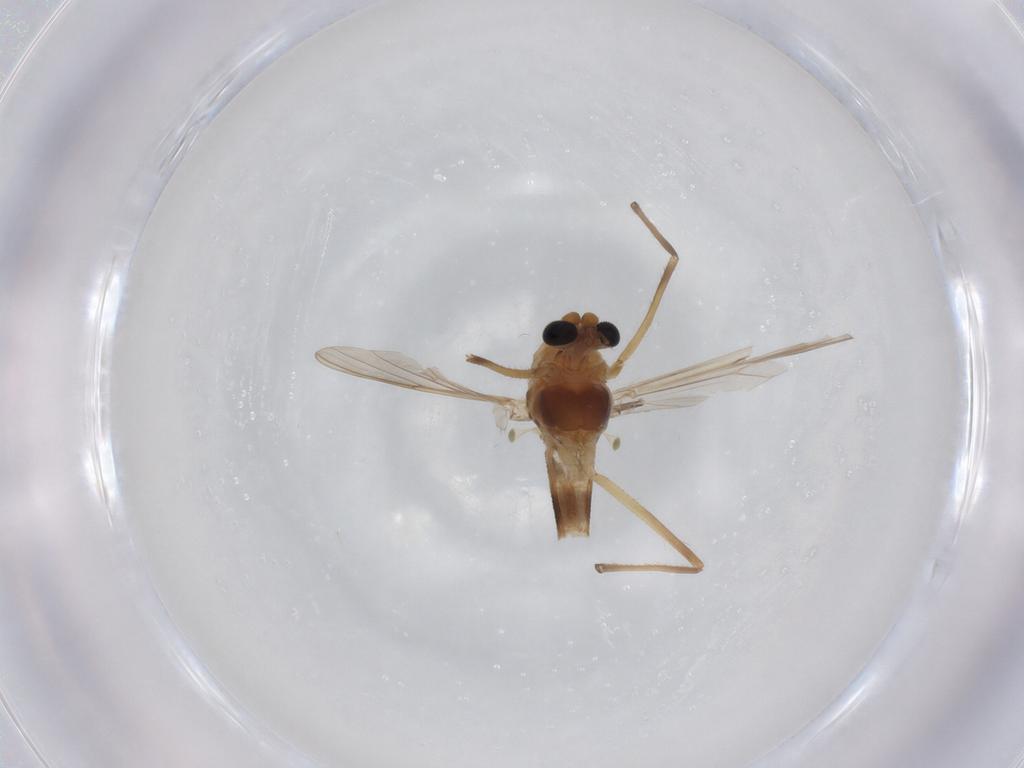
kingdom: Animalia
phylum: Arthropoda
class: Insecta
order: Diptera
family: Chironomidae
